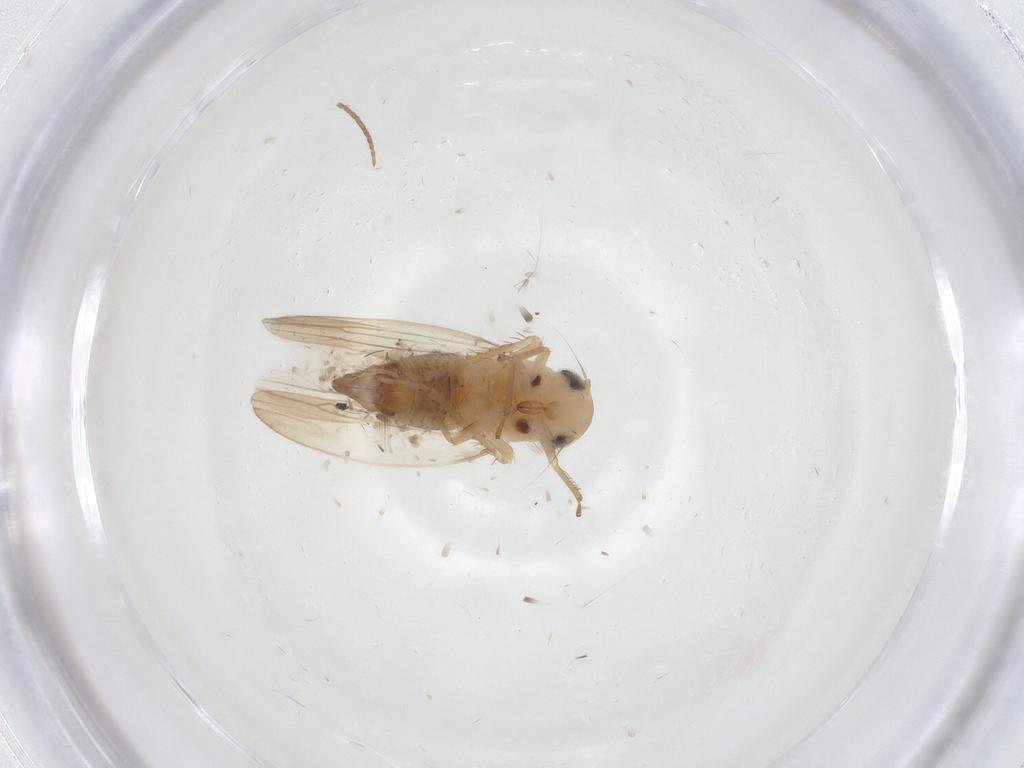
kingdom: Animalia
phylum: Arthropoda
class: Insecta
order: Hemiptera
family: Cicadellidae
